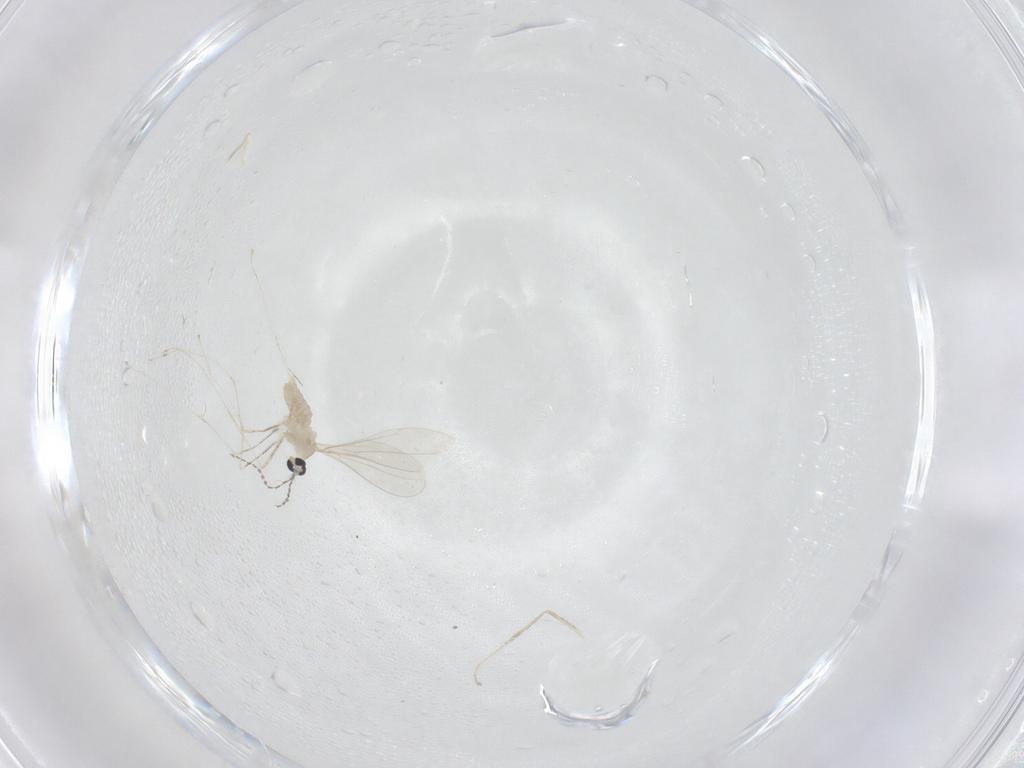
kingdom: Animalia
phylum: Arthropoda
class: Insecta
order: Diptera
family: Cecidomyiidae
